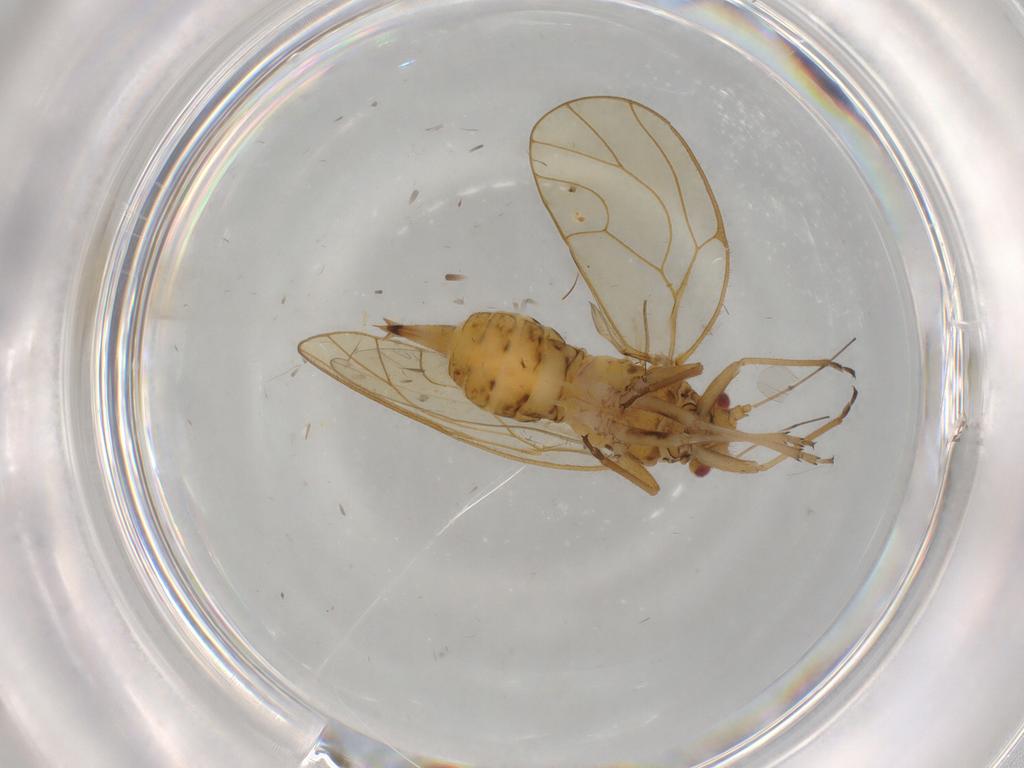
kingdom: Animalia
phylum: Arthropoda
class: Insecta
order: Hemiptera
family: Psyllidae
